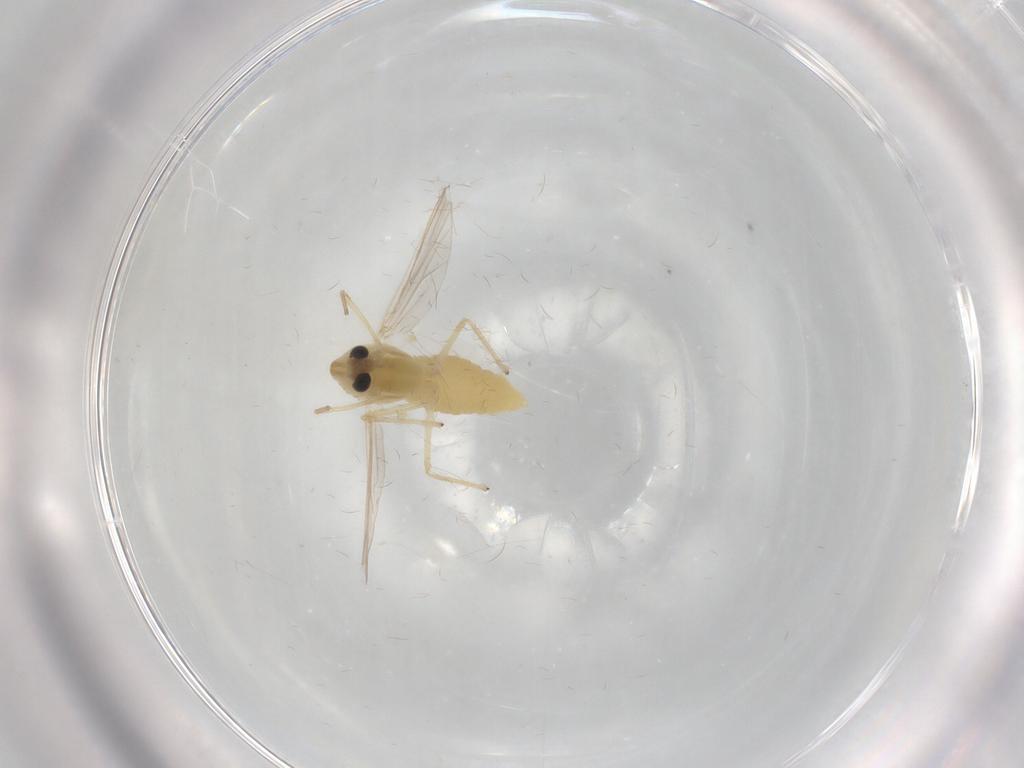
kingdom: Animalia
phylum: Arthropoda
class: Insecta
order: Diptera
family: Chironomidae
